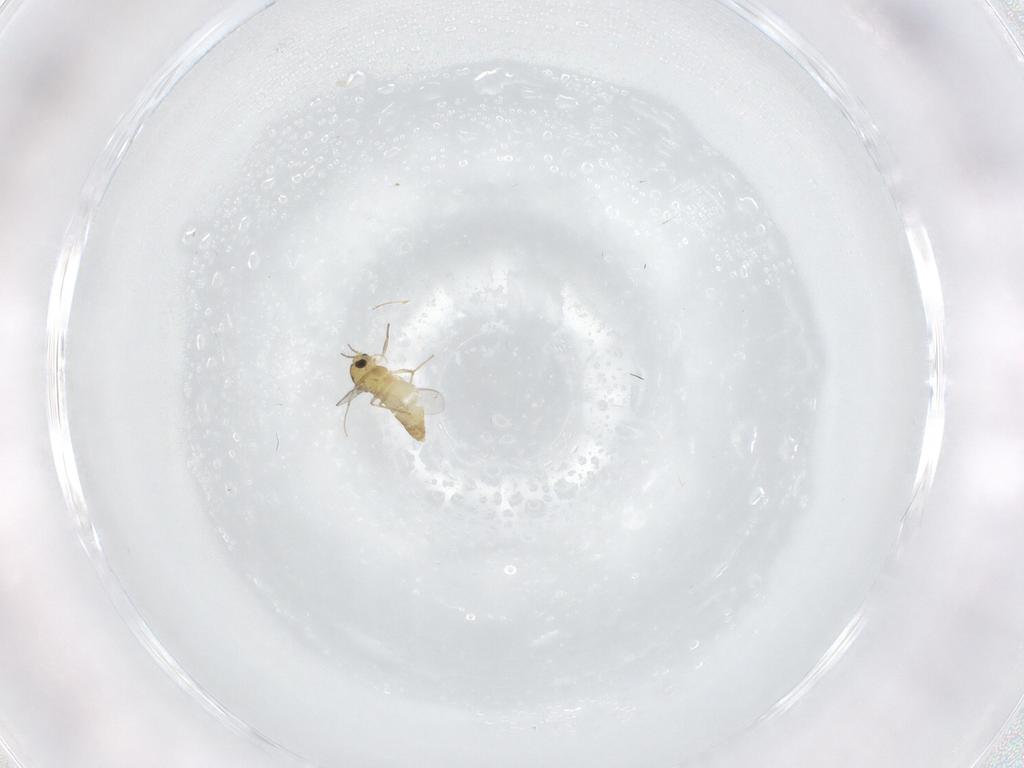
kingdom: Animalia
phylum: Arthropoda
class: Insecta
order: Diptera
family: Chironomidae
